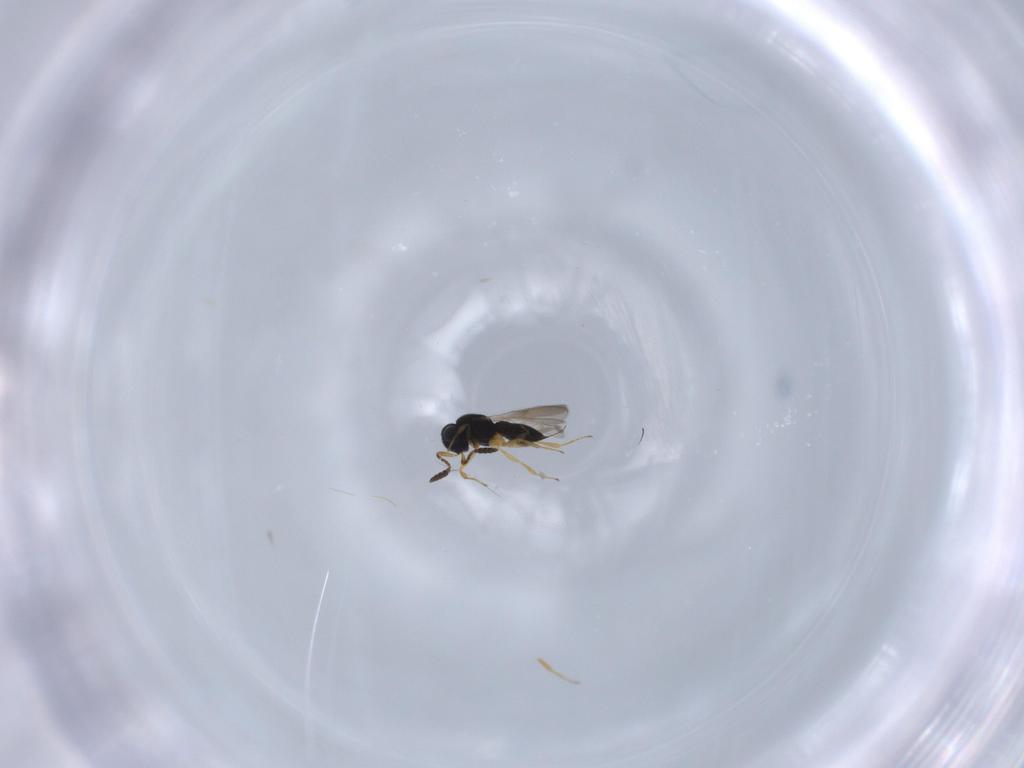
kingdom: Animalia
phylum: Arthropoda
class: Insecta
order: Hymenoptera
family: Scelionidae
